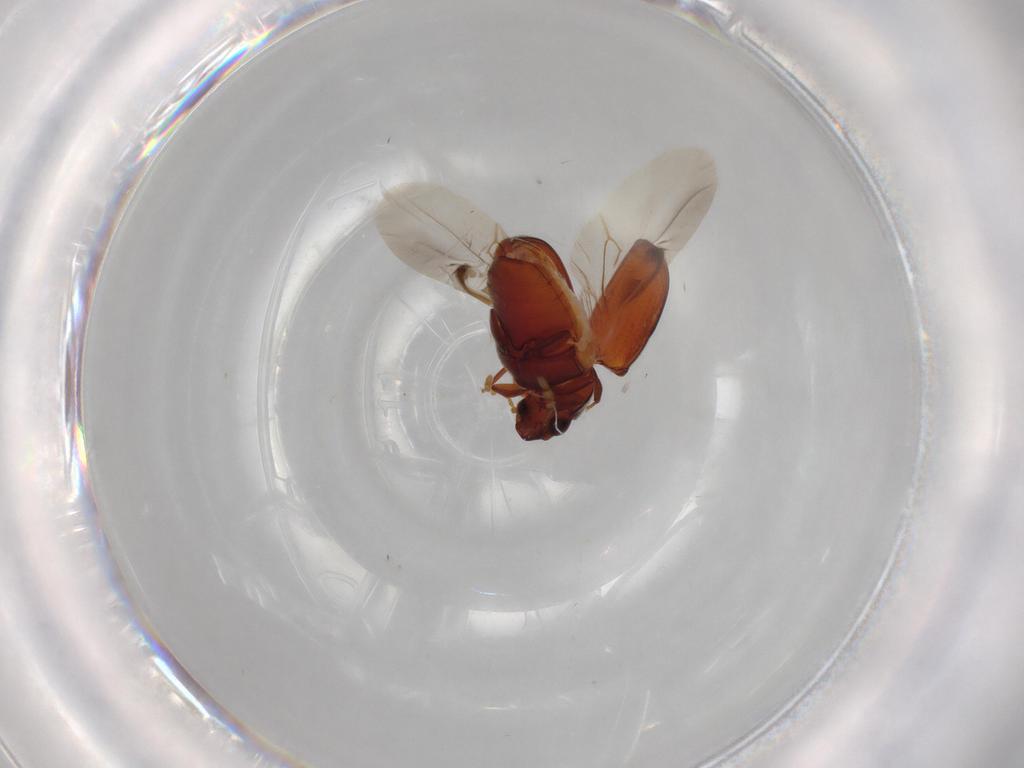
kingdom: Animalia
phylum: Arthropoda
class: Insecta
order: Coleoptera
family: Ptinidae
